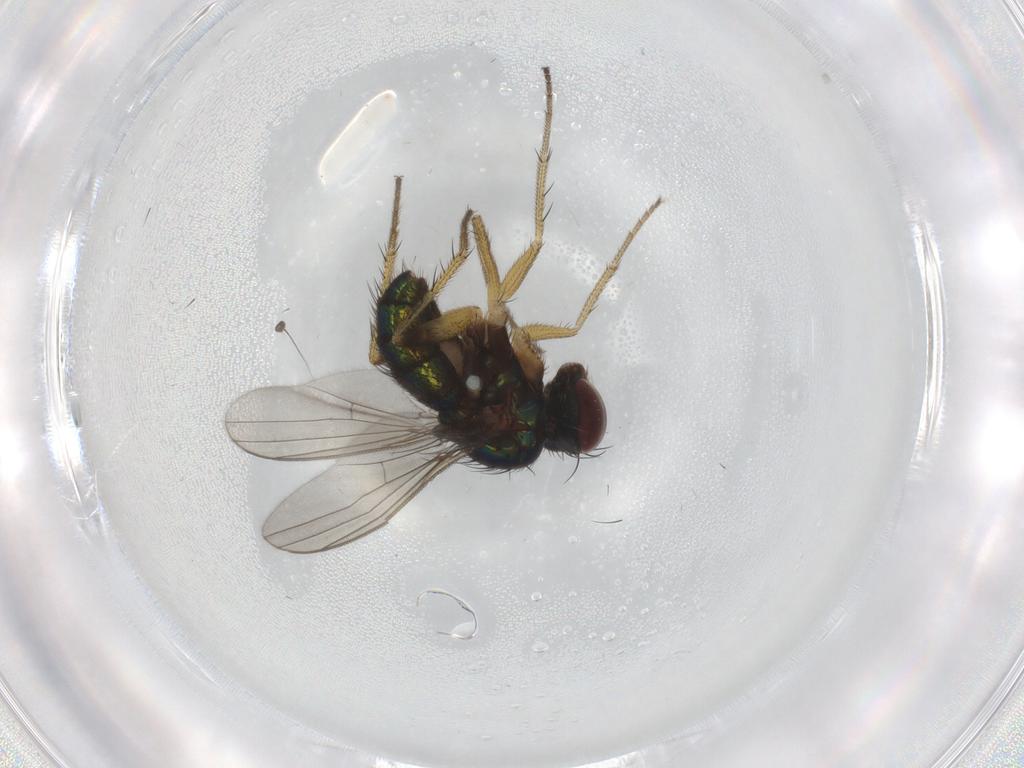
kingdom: Animalia
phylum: Arthropoda
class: Insecta
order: Diptera
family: Dolichopodidae
